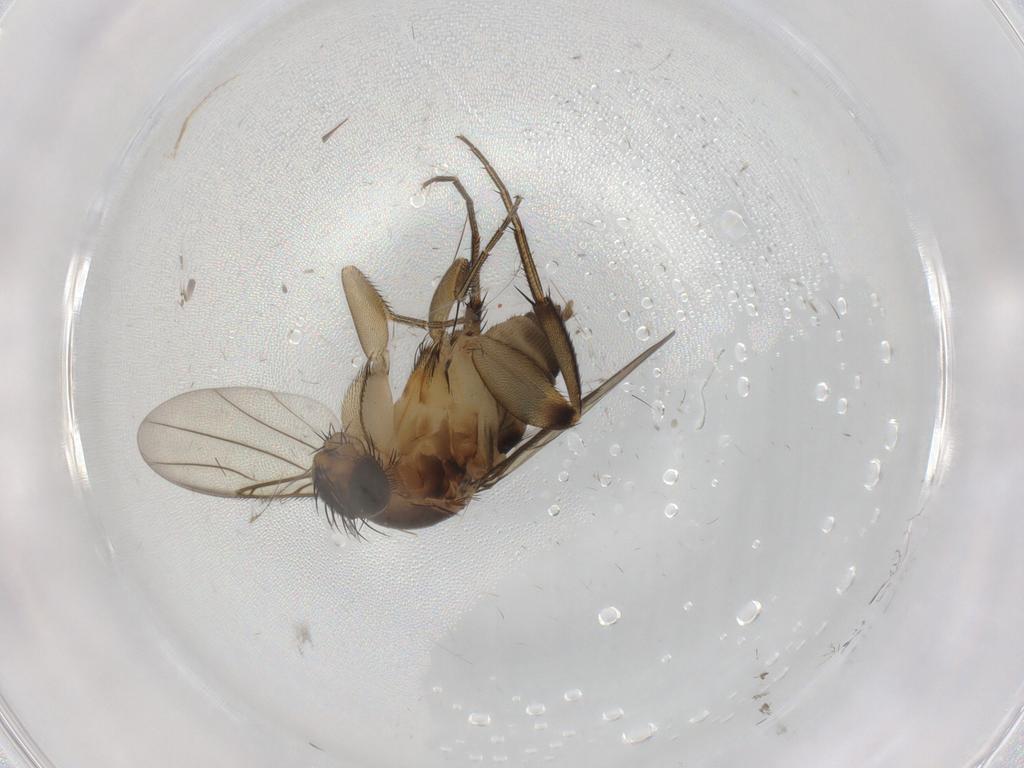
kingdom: Animalia
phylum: Arthropoda
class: Insecta
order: Diptera
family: Cecidomyiidae
